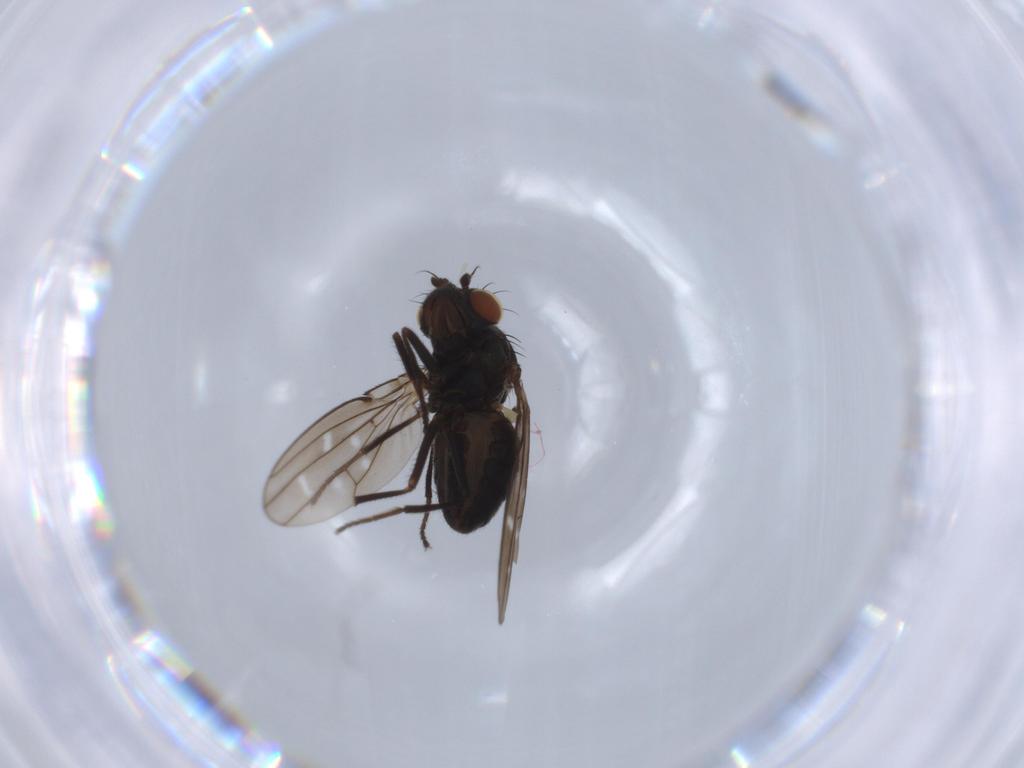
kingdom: Animalia
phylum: Arthropoda
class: Insecta
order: Diptera
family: Ephydridae
